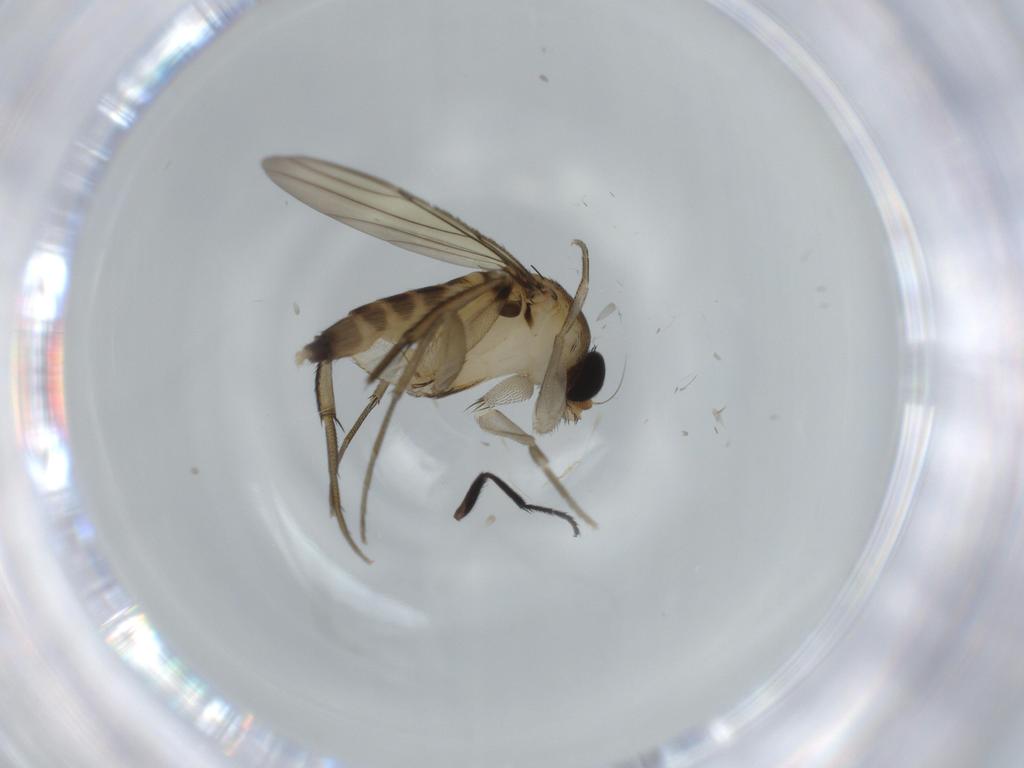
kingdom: Animalia
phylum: Arthropoda
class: Insecta
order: Diptera
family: Phoridae
